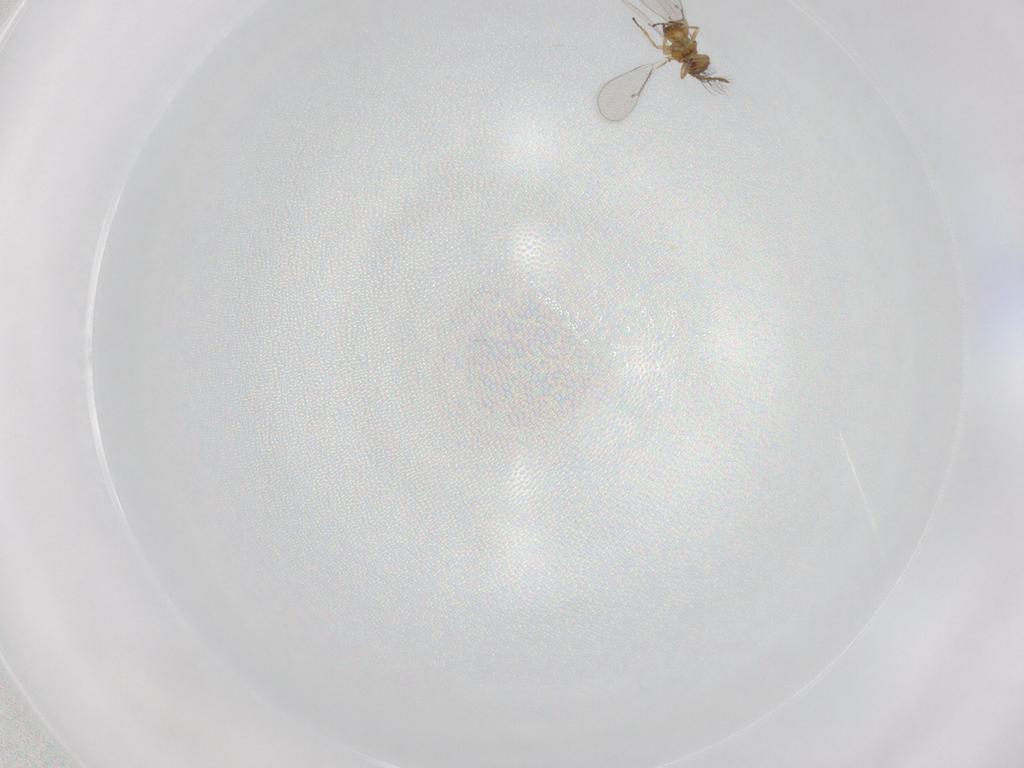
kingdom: Animalia
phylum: Arthropoda
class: Insecta
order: Hymenoptera
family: Eulophidae
